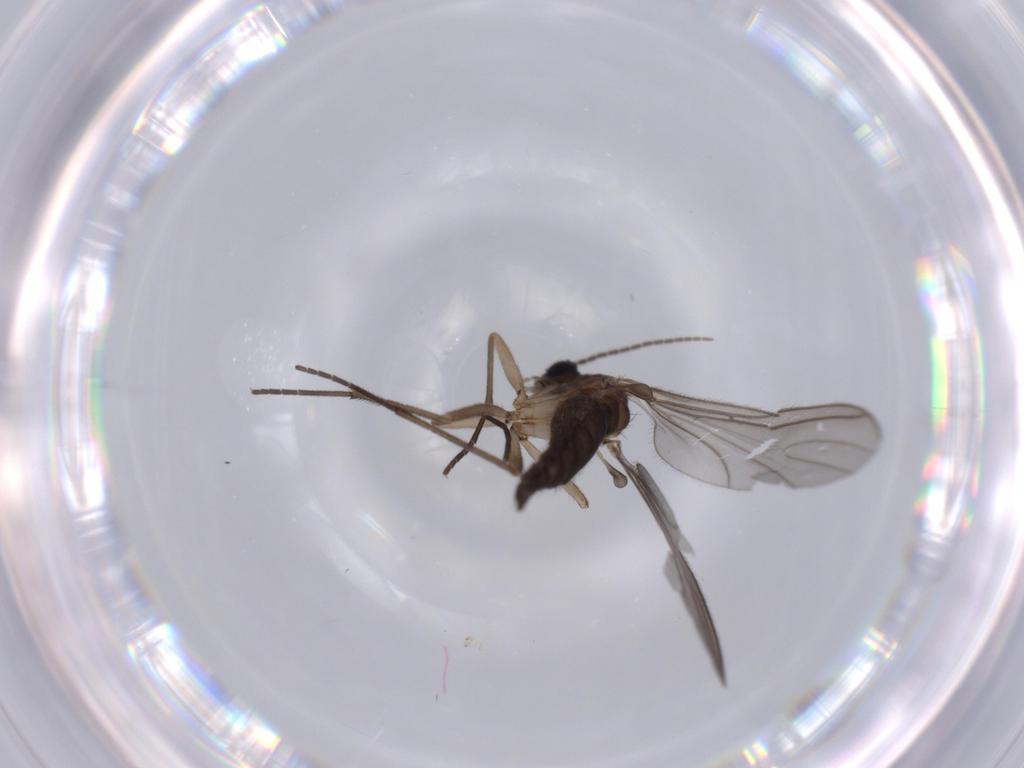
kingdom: Animalia
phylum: Arthropoda
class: Insecta
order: Diptera
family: Sciaridae
